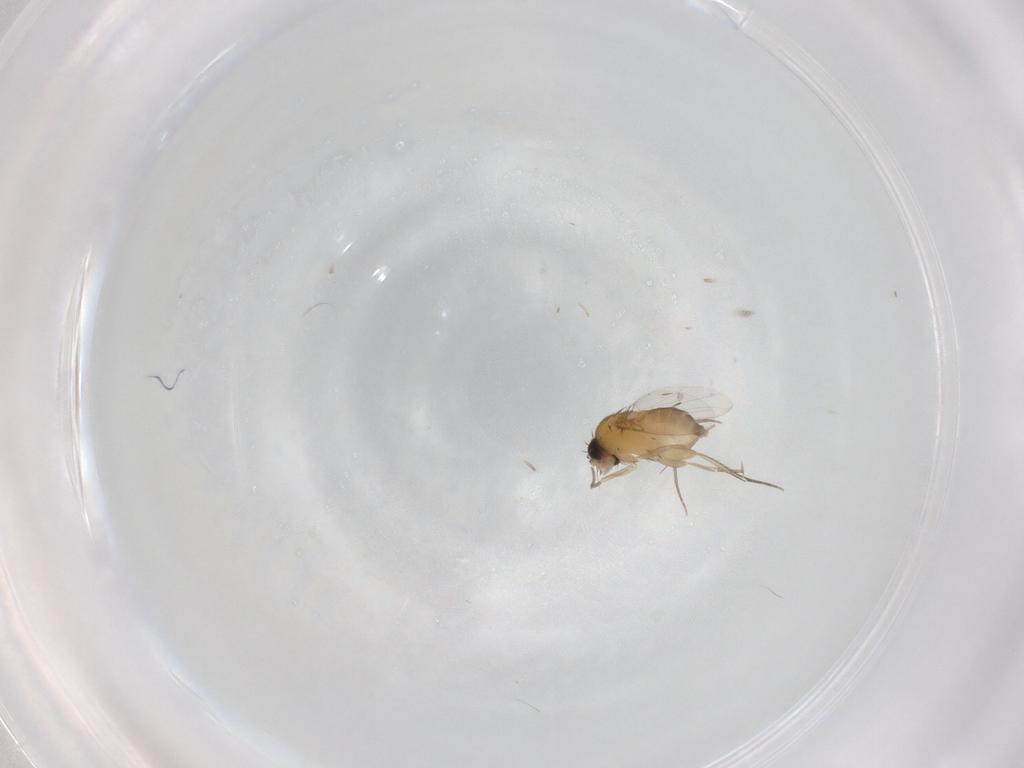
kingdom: Animalia
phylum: Arthropoda
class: Insecta
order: Diptera
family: Phoridae
